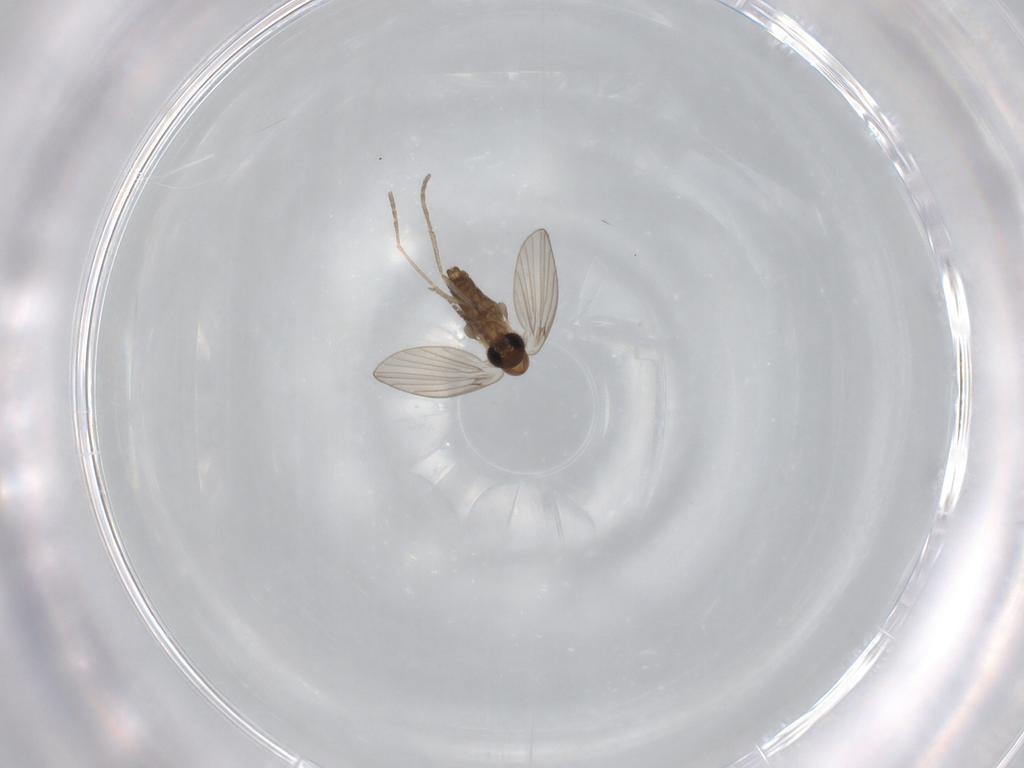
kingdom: Animalia
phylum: Arthropoda
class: Insecta
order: Diptera
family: Psychodidae
